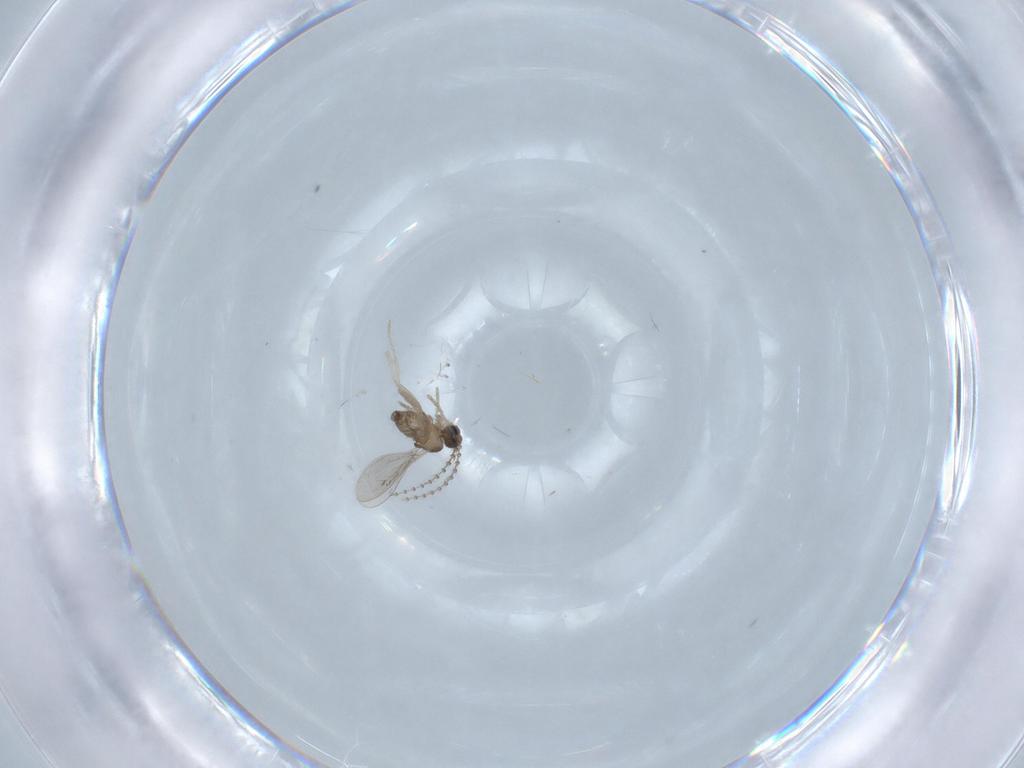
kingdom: Animalia
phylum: Arthropoda
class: Insecta
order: Diptera
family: Cecidomyiidae
